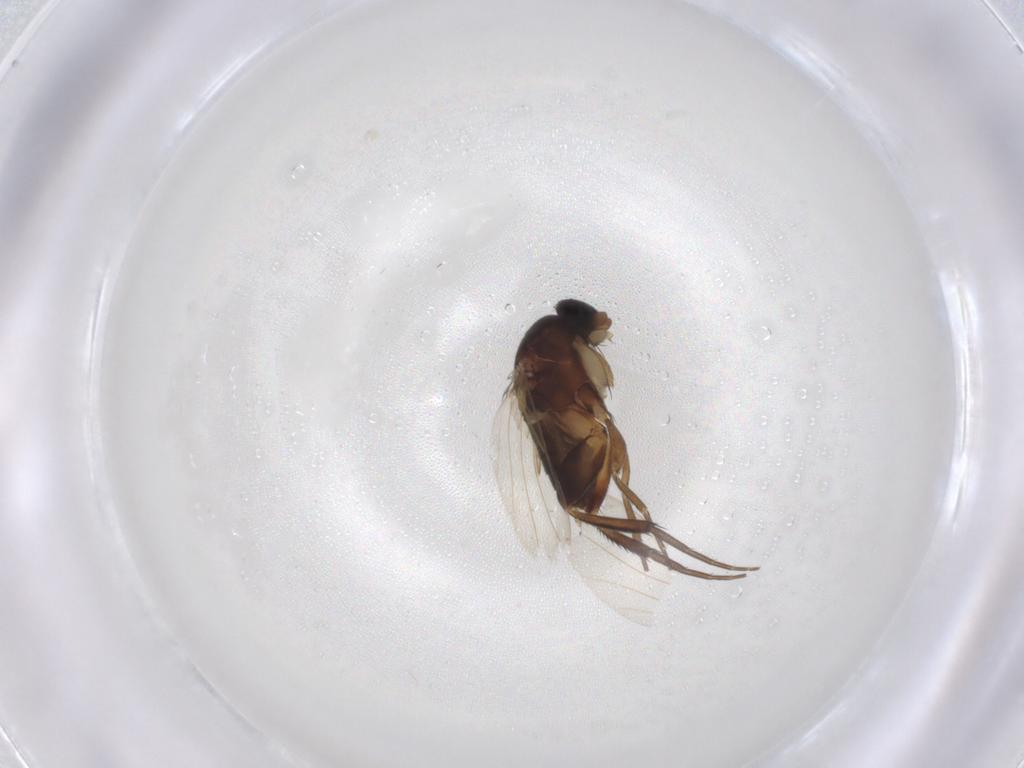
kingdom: Animalia
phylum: Arthropoda
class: Insecta
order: Diptera
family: Phoridae
